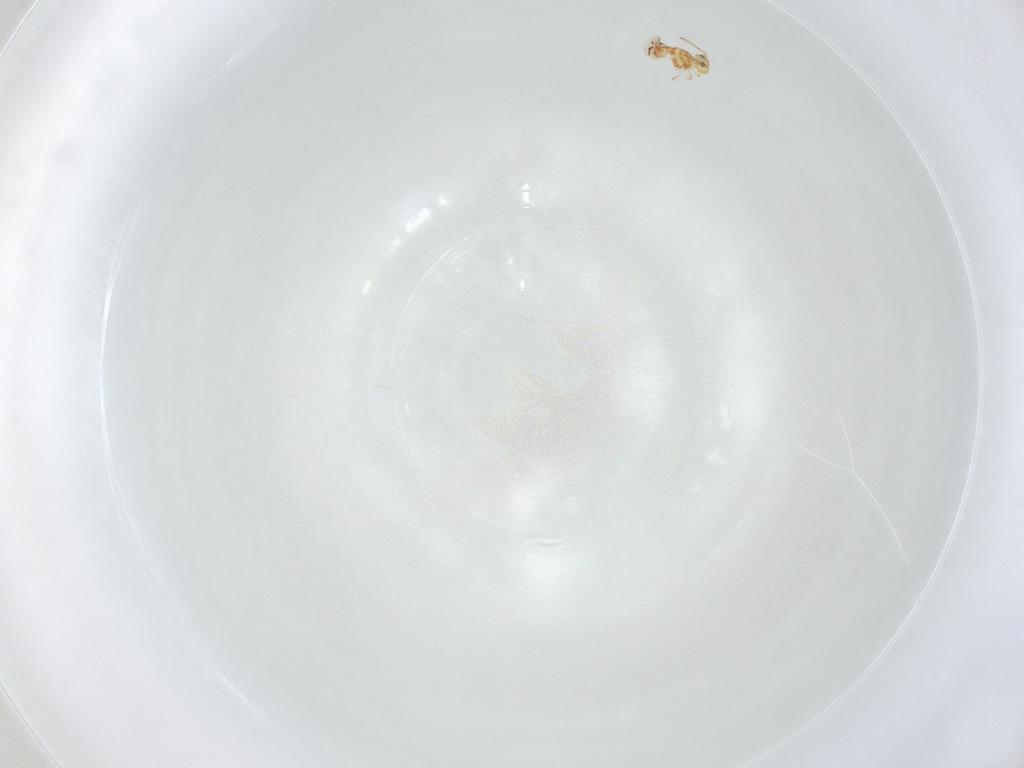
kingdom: Animalia
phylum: Arthropoda
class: Collembola
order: Symphypleona
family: Bourletiellidae
